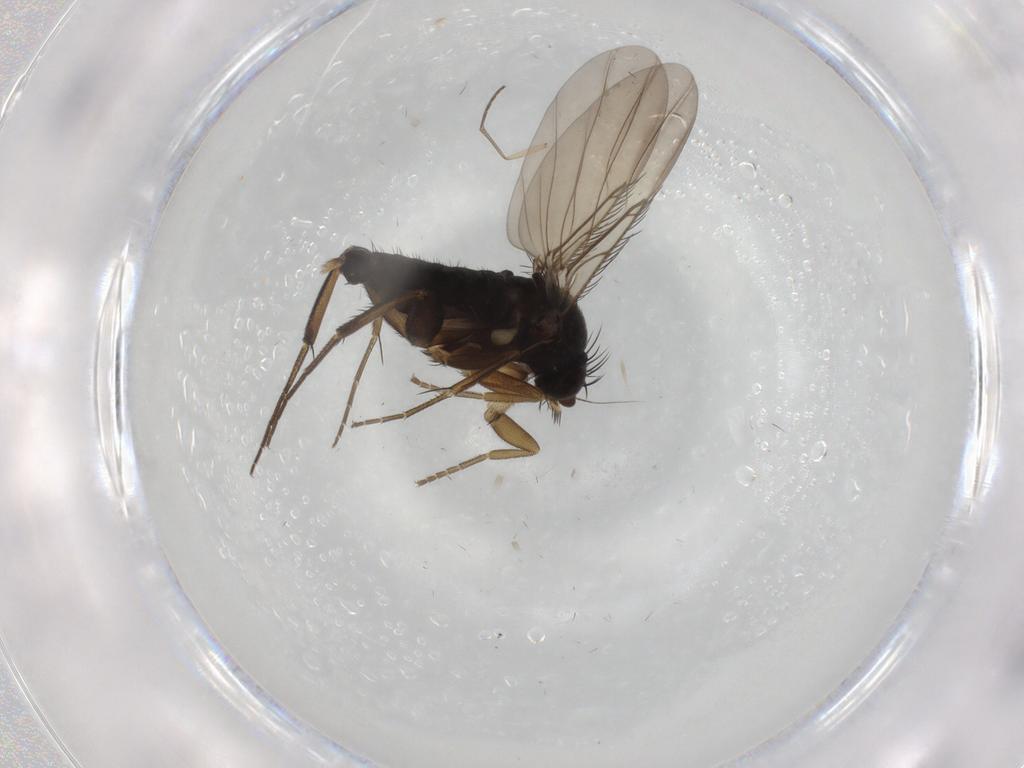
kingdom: Animalia
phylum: Arthropoda
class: Insecta
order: Diptera
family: Phoridae
